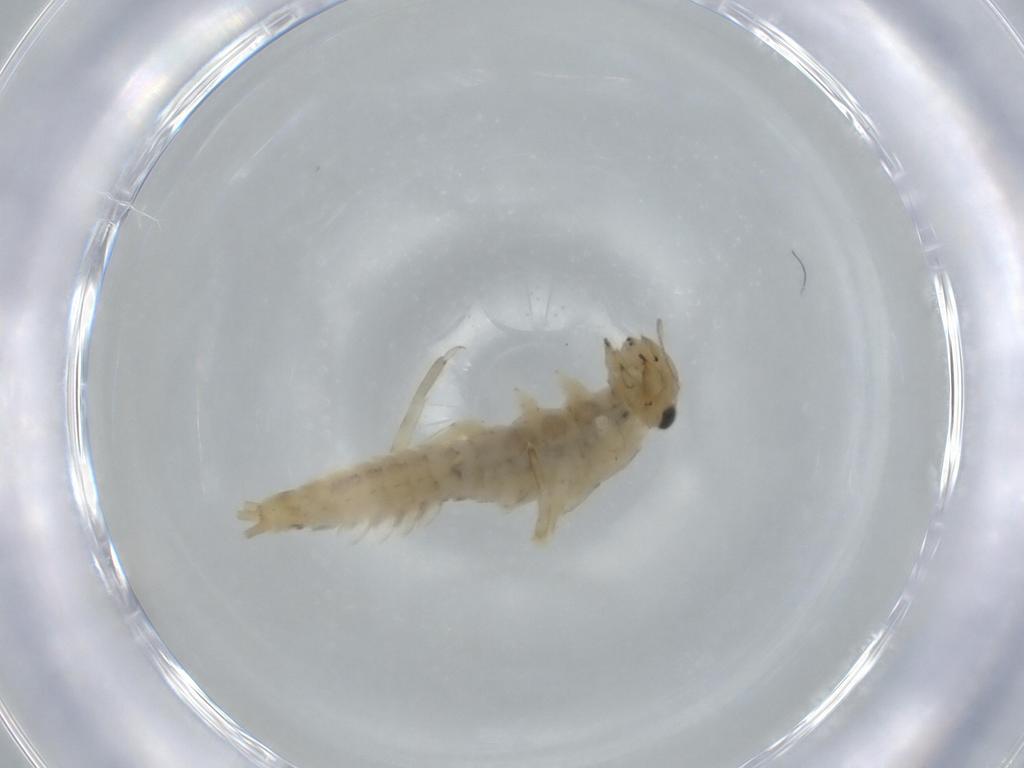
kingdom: Animalia
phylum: Arthropoda
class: Insecta
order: Ephemeroptera
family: Ephemerellidae
